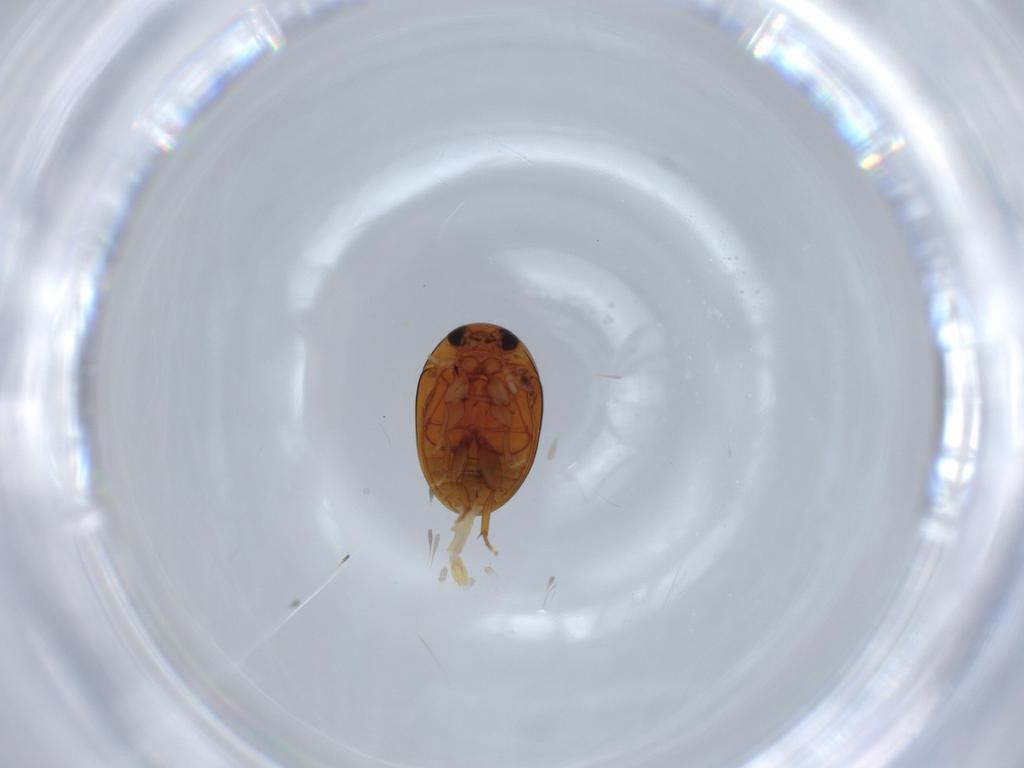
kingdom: Animalia
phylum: Arthropoda
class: Insecta
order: Coleoptera
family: Phalacridae
